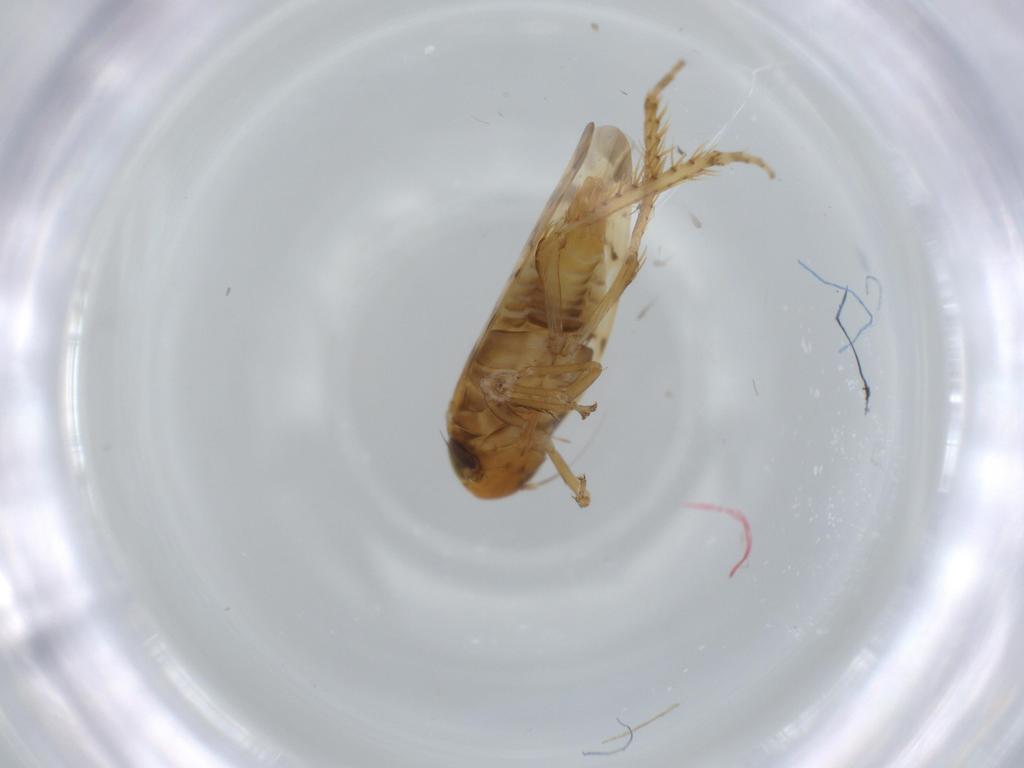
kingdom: Animalia
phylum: Arthropoda
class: Insecta
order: Hemiptera
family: Cicadellidae
